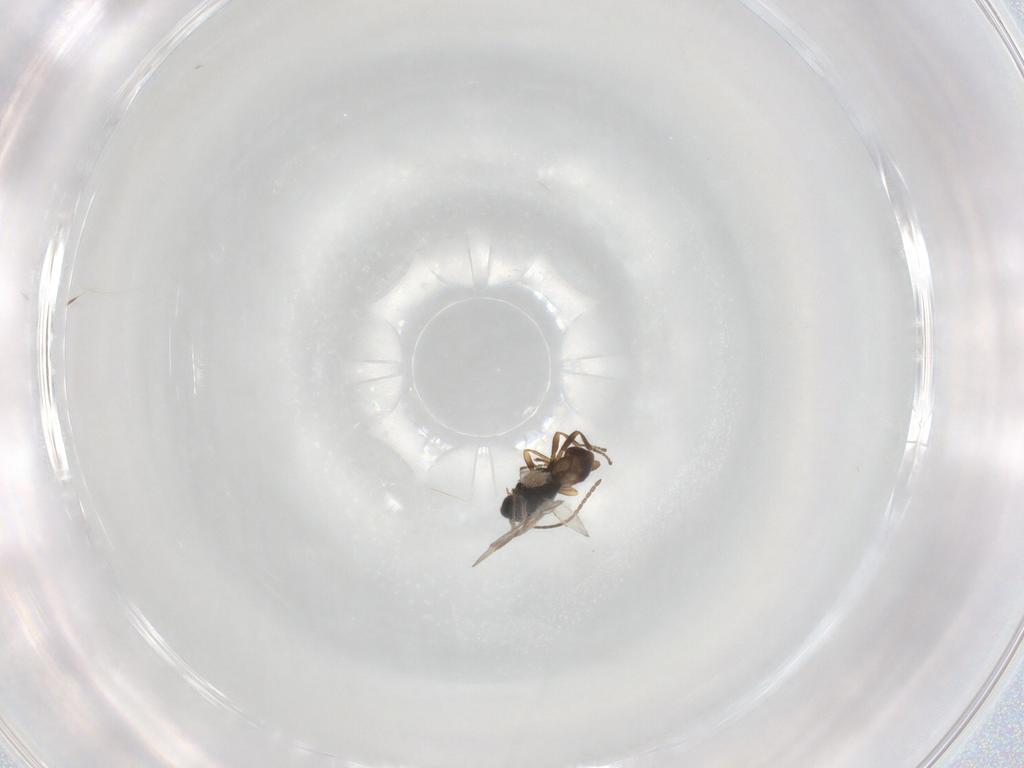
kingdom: Animalia
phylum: Arthropoda
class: Insecta
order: Hymenoptera
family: Braconidae
